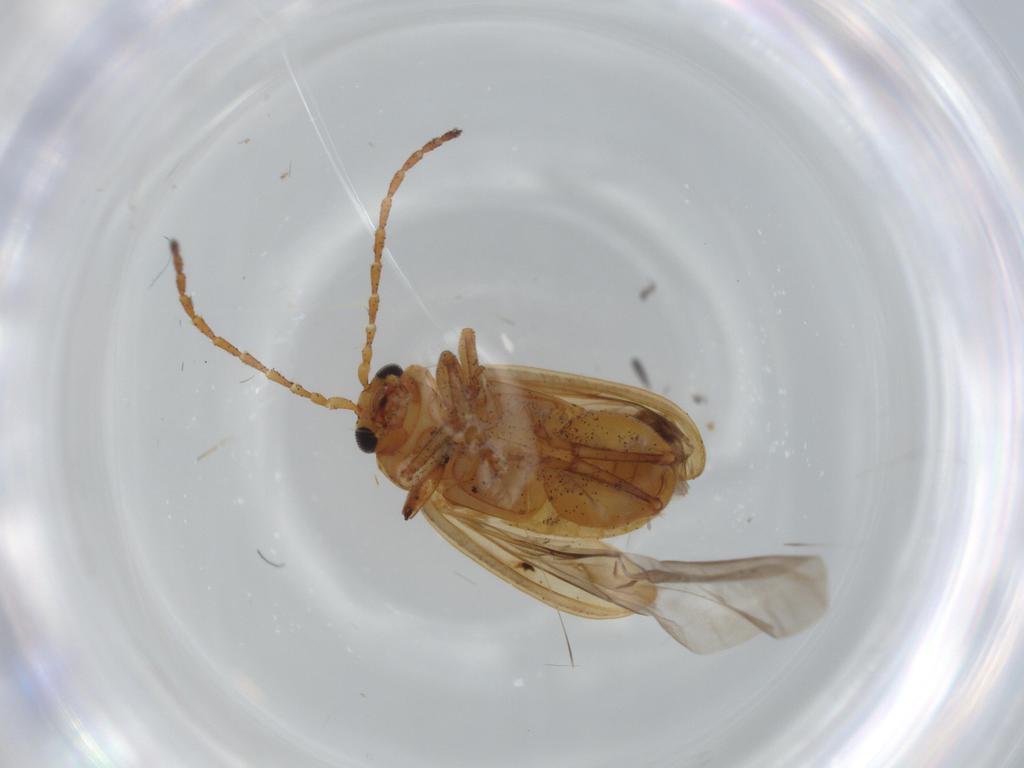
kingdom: Animalia
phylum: Arthropoda
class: Insecta
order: Coleoptera
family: Chrysomelidae
